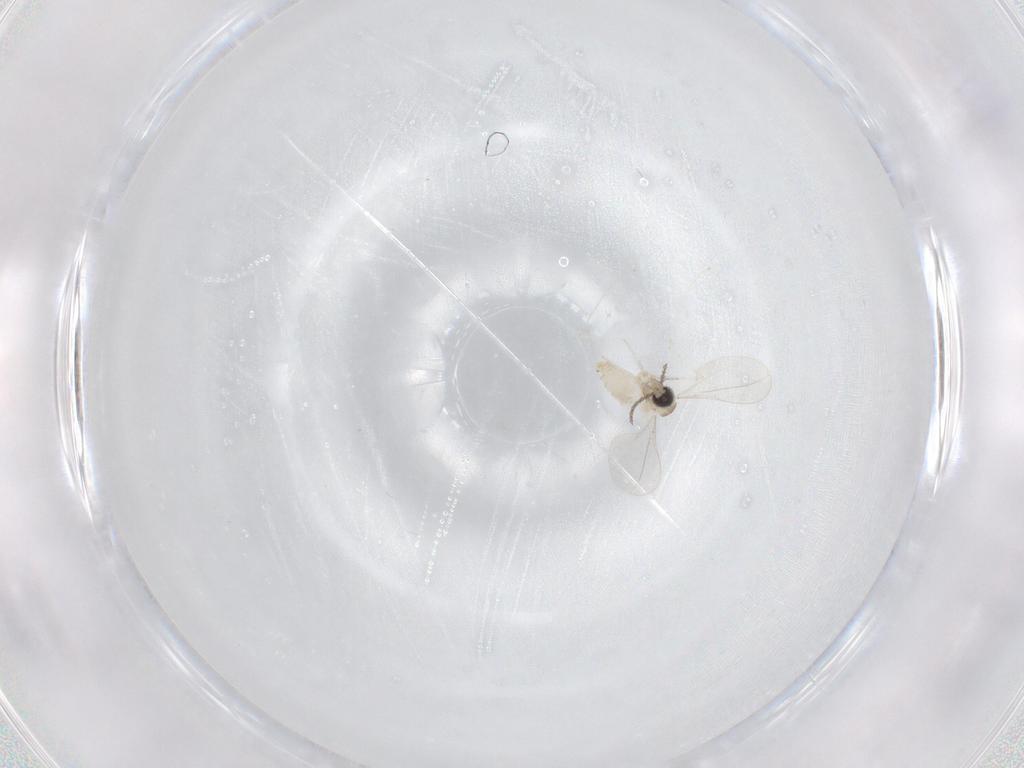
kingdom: Animalia
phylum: Arthropoda
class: Insecta
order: Diptera
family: Cecidomyiidae
